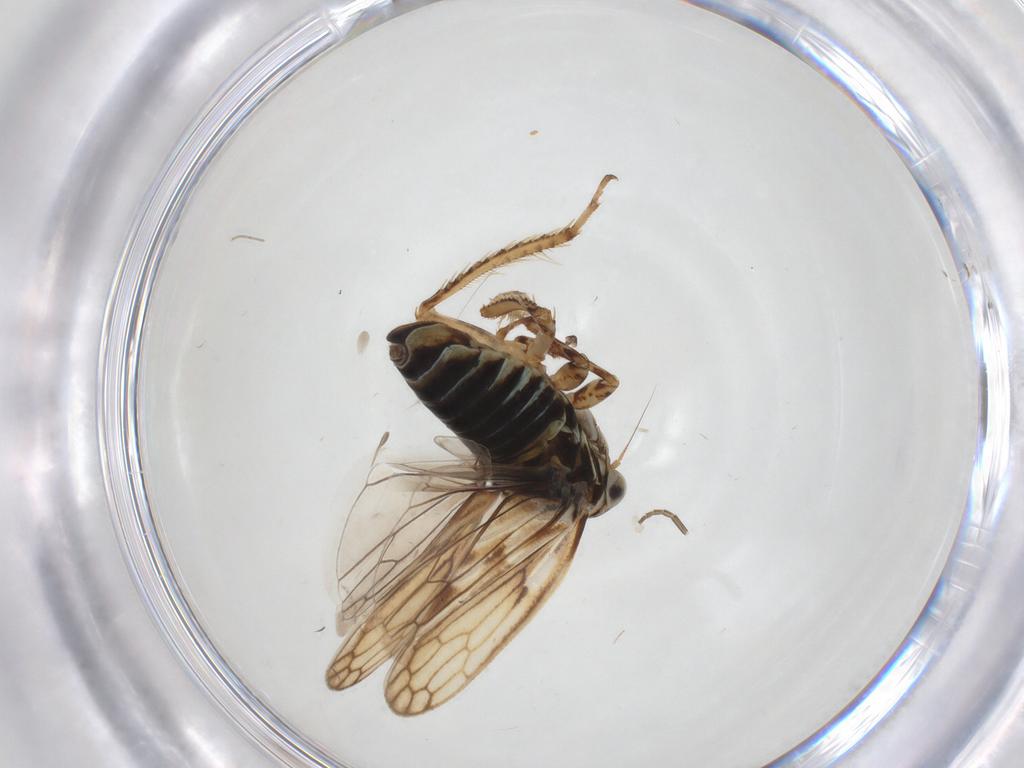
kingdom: Animalia
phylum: Arthropoda
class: Insecta
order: Hemiptera
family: Cicadellidae
